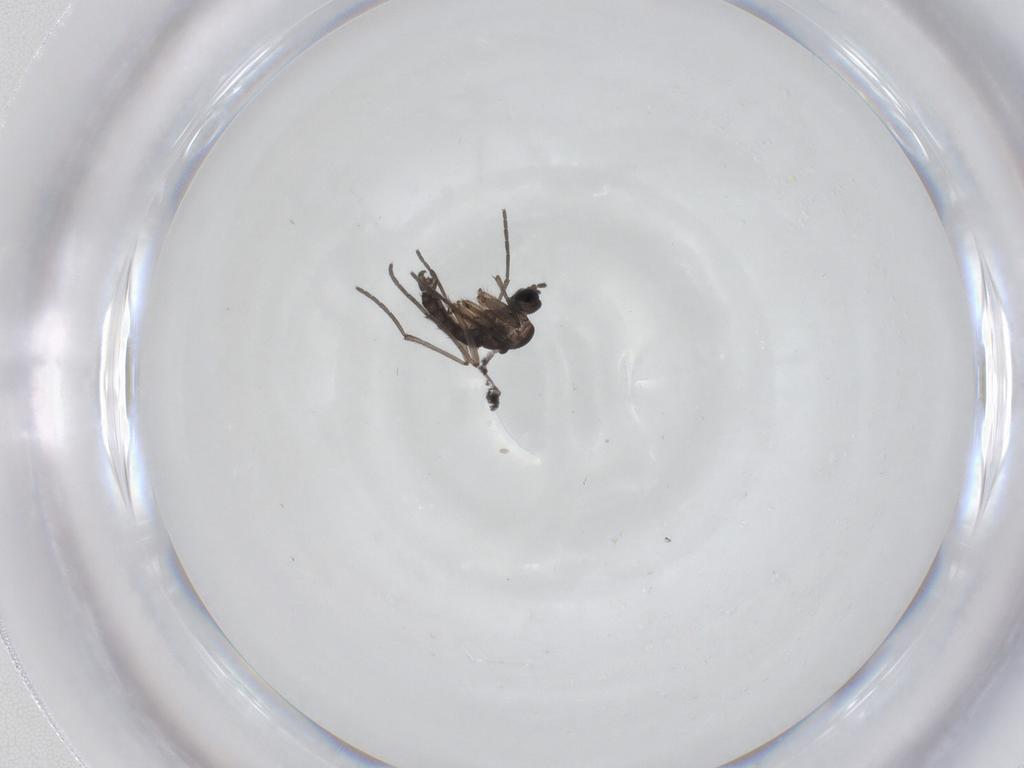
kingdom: Animalia
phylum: Arthropoda
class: Insecta
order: Diptera
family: Sciaridae
